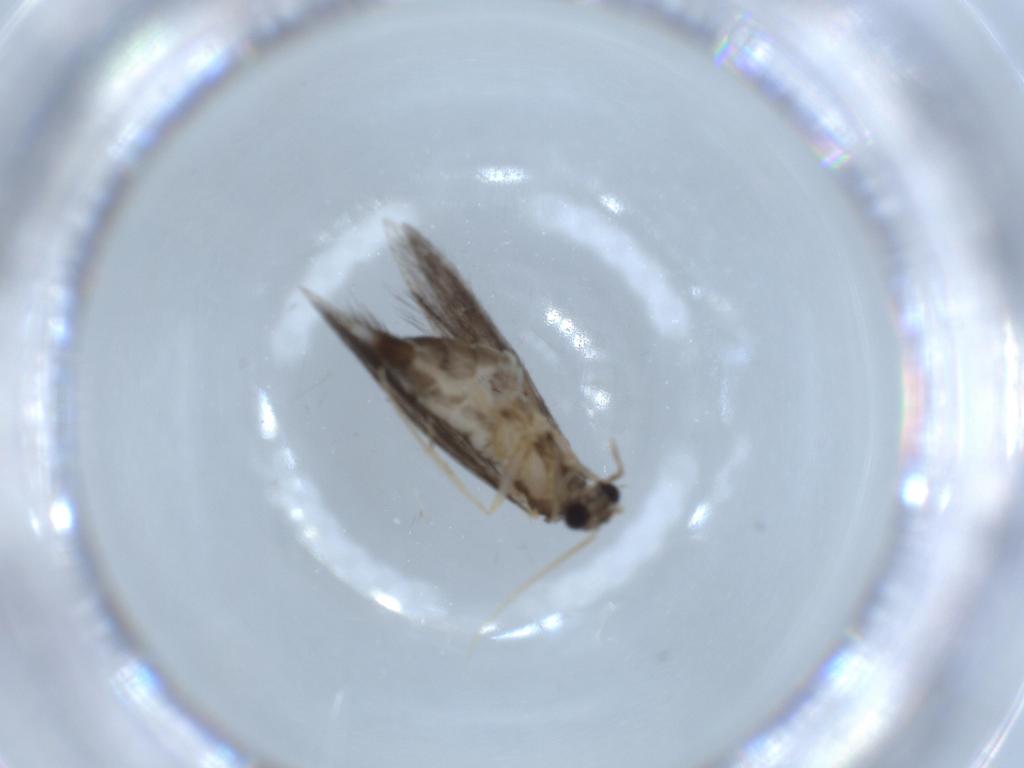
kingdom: Animalia
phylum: Arthropoda
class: Insecta
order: Trichoptera
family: Hydroptilidae
